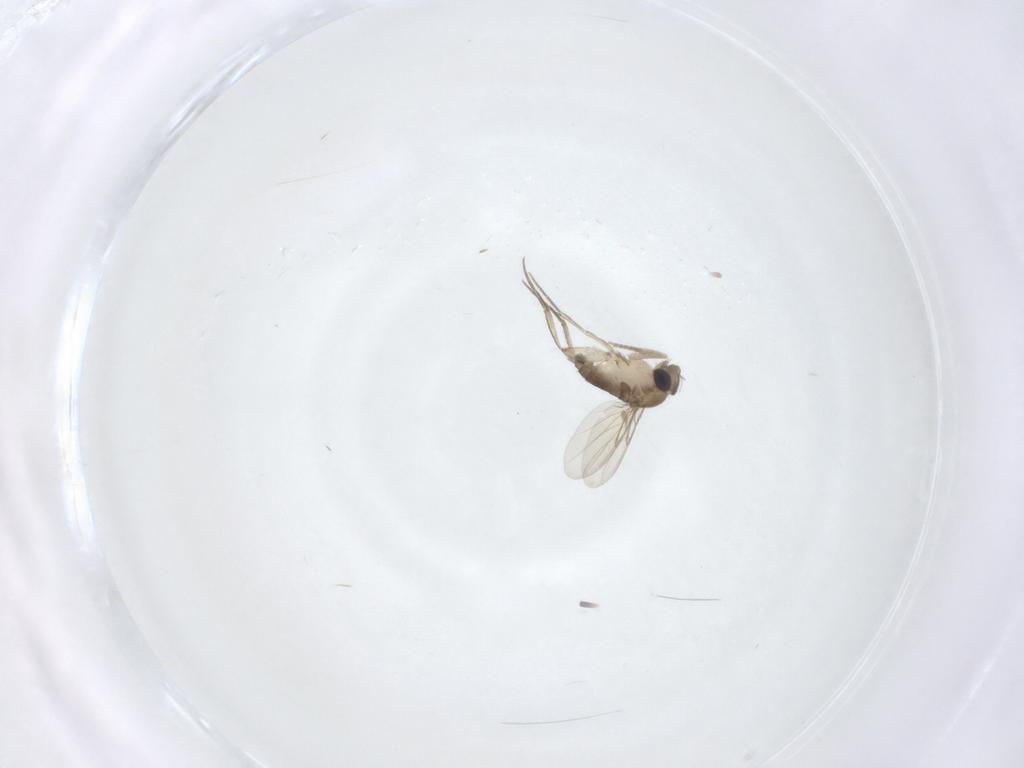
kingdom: Animalia
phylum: Arthropoda
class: Insecta
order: Diptera
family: Phoridae
